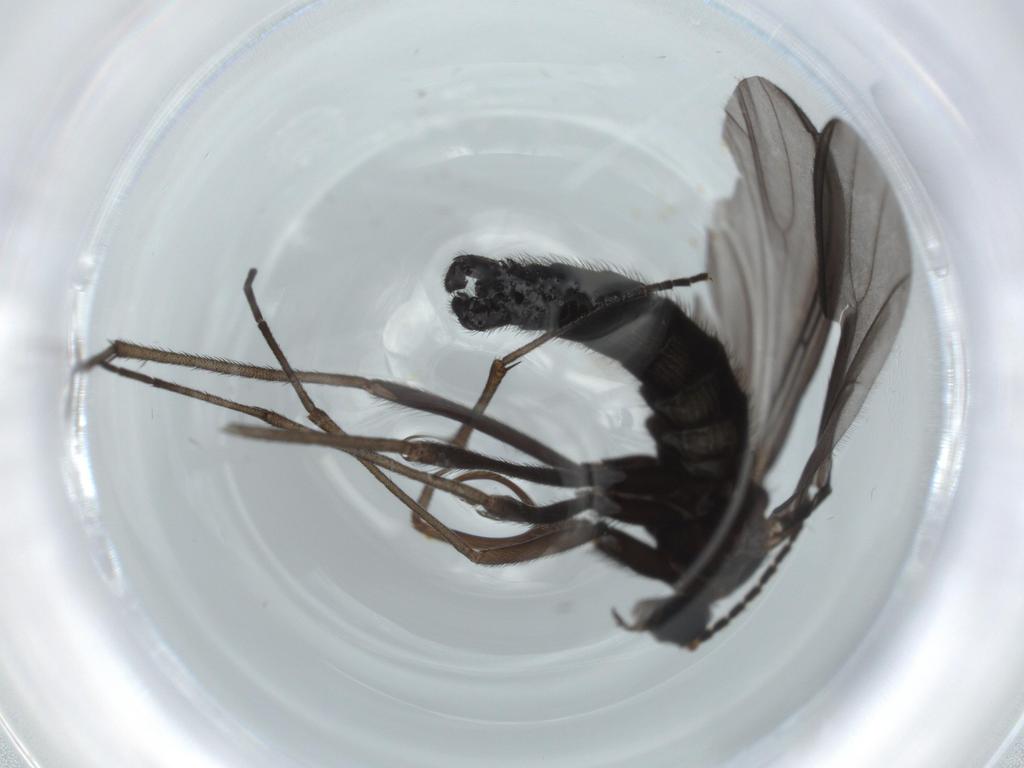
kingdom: Animalia
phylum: Arthropoda
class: Insecta
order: Diptera
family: Sciaridae
